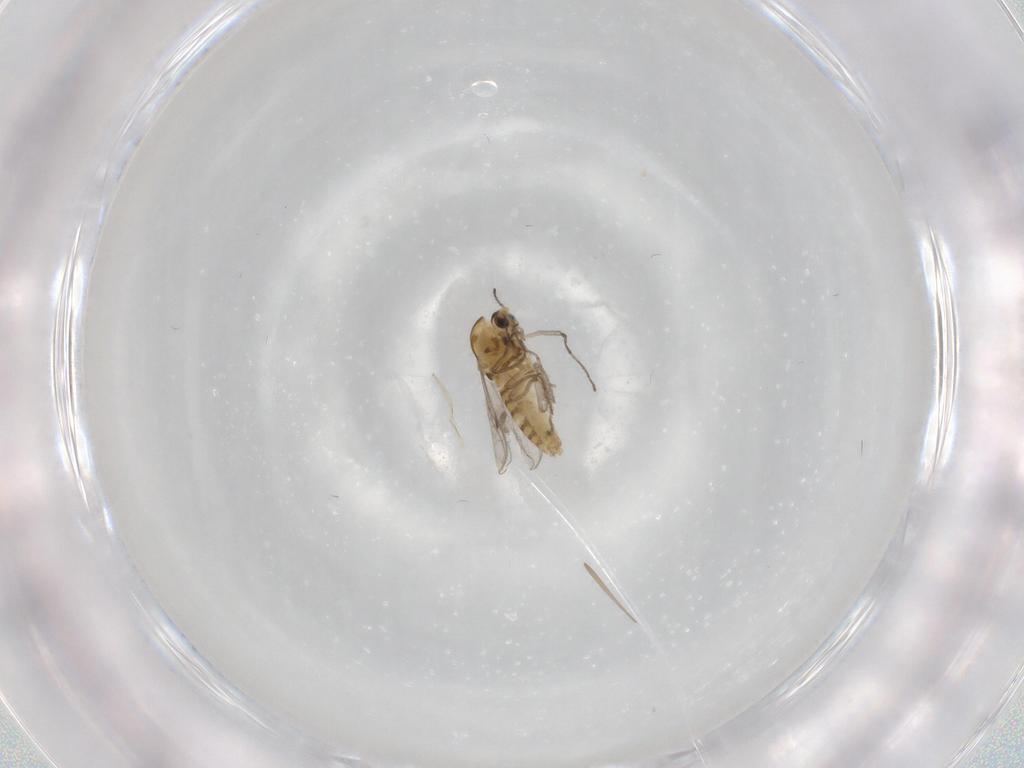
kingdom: Animalia
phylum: Arthropoda
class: Insecta
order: Diptera
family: Chironomidae
